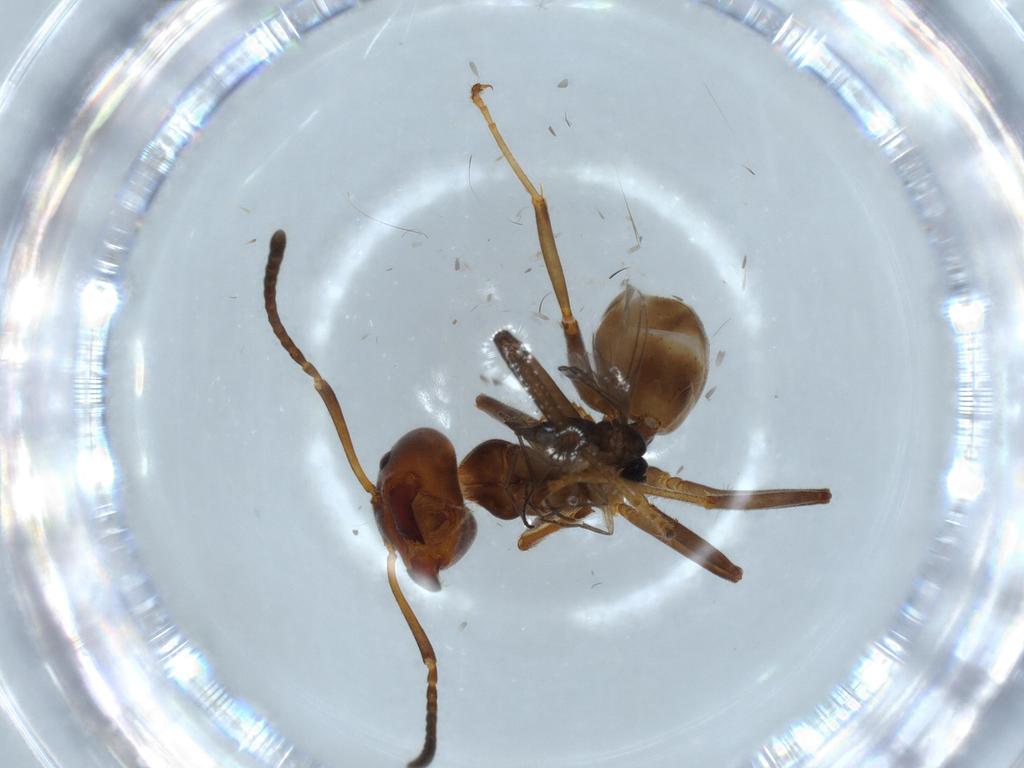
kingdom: Animalia
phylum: Arthropoda
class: Insecta
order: Hymenoptera
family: Formicidae
